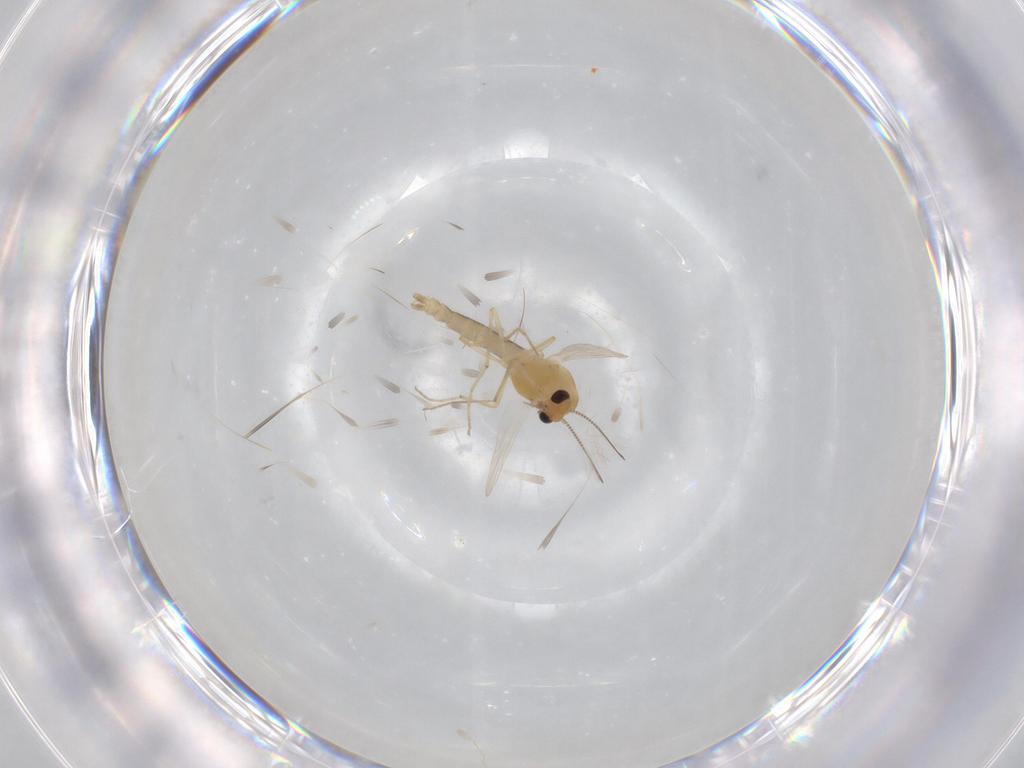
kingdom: Animalia
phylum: Arthropoda
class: Insecta
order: Diptera
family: Chironomidae
